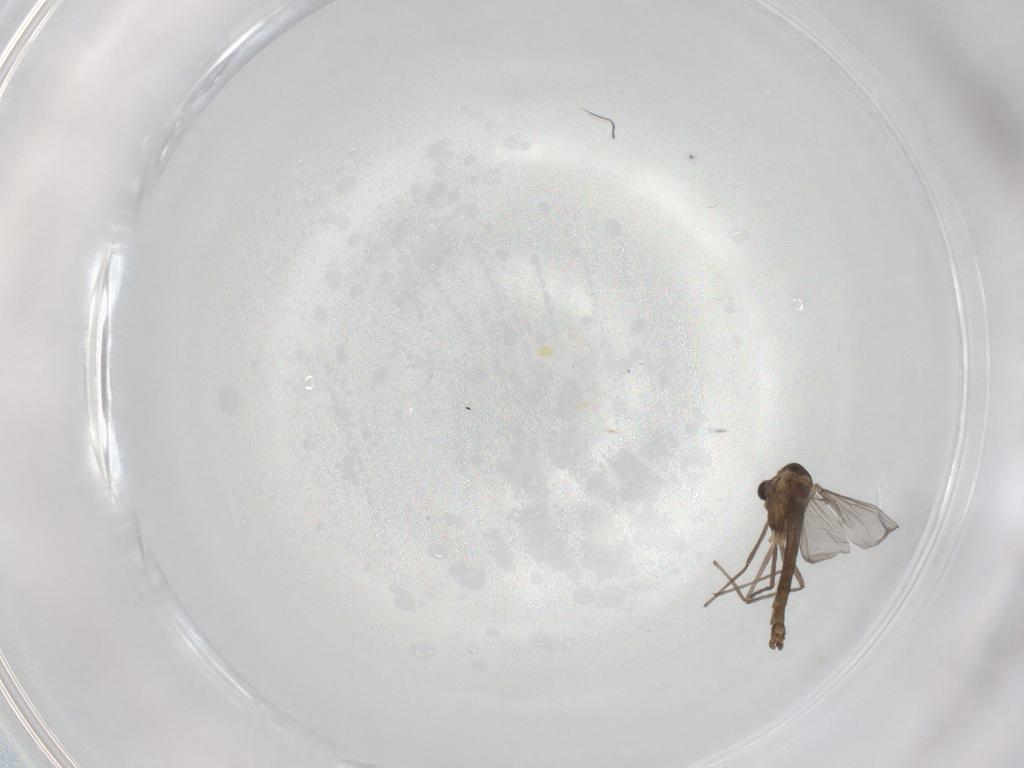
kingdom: Animalia
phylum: Arthropoda
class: Insecta
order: Diptera
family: Chironomidae
